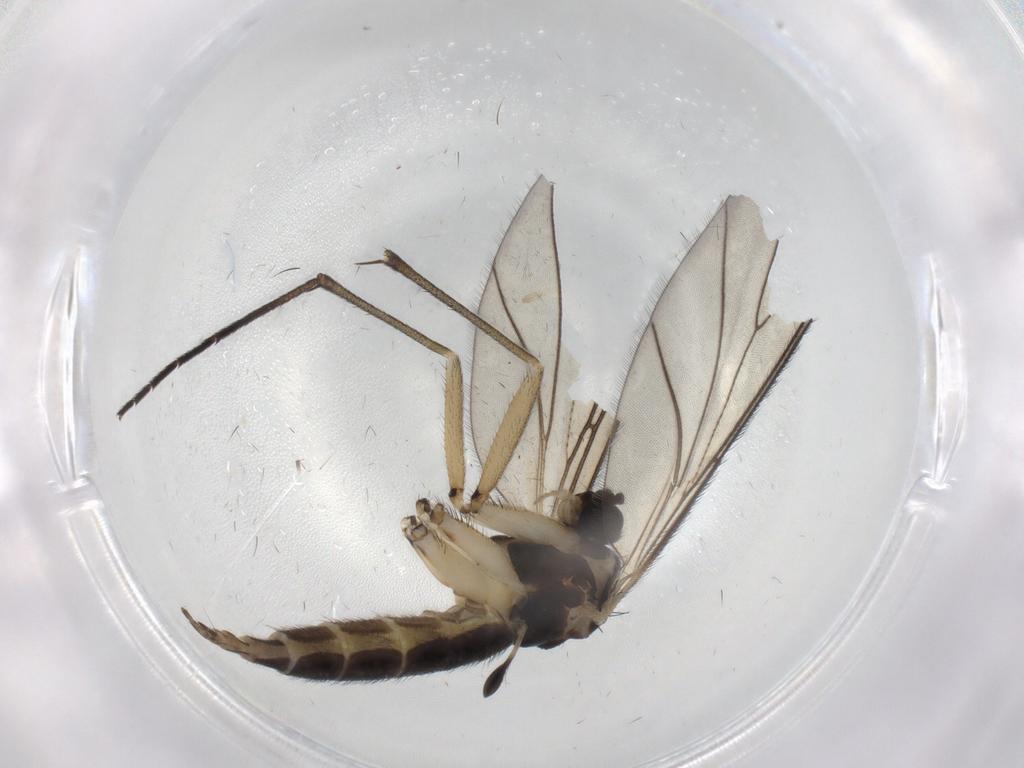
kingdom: Animalia
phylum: Arthropoda
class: Insecta
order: Diptera
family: Sciaridae
